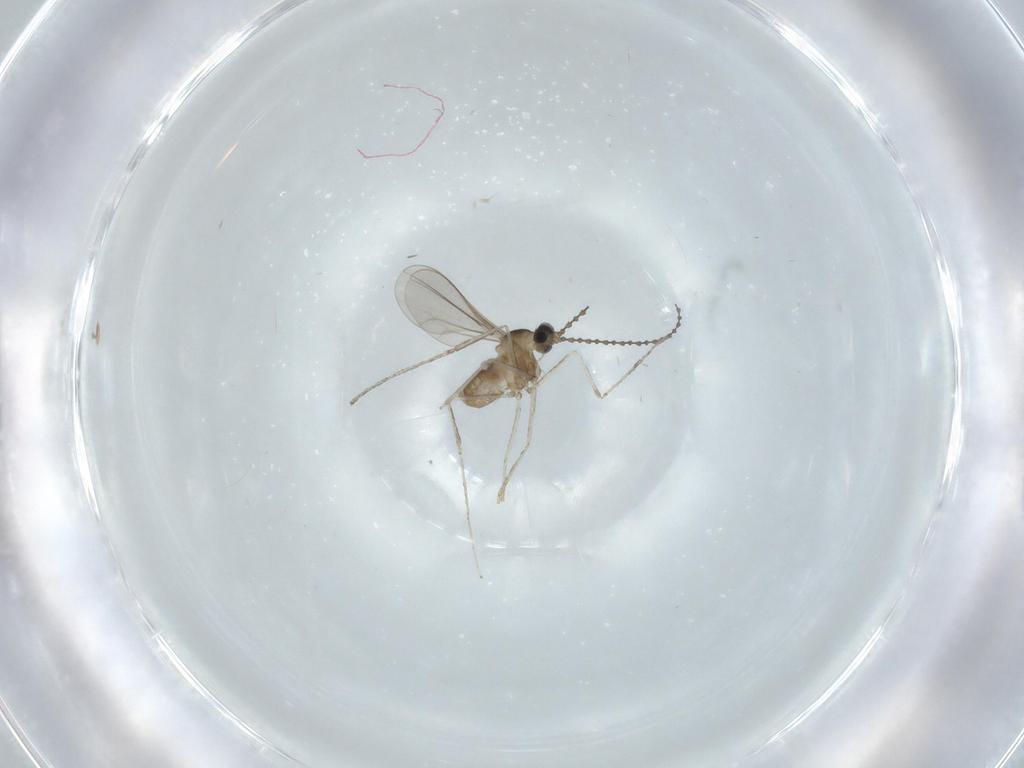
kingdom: Animalia
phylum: Arthropoda
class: Insecta
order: Diptera
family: Cecidomyiidae
